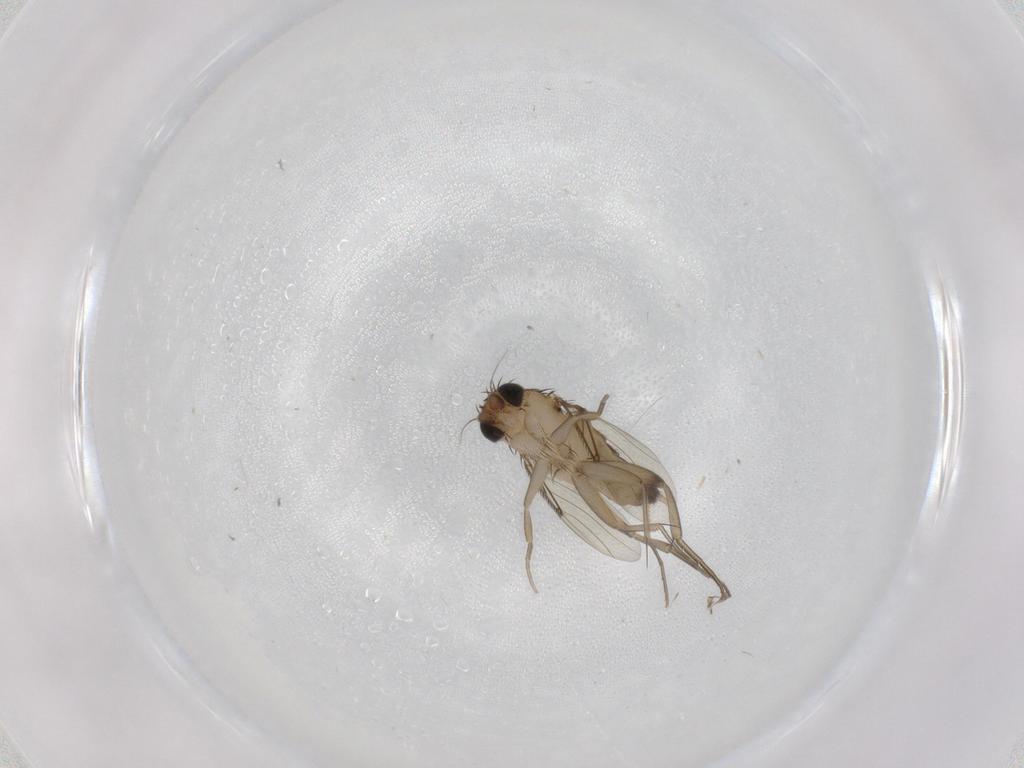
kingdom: Animalia
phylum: Arthropoda
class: Insecta
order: Diptera
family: Phoridae
